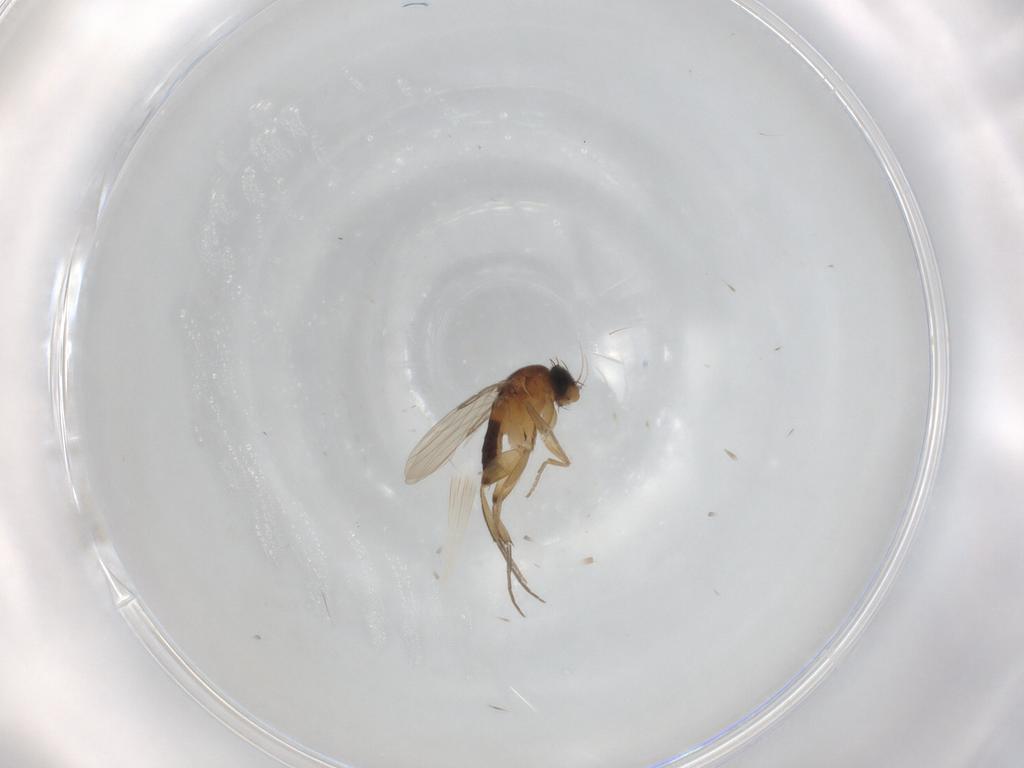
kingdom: Animalia
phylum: Arthropoda
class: Insecta
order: Diptera
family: Phoridae
